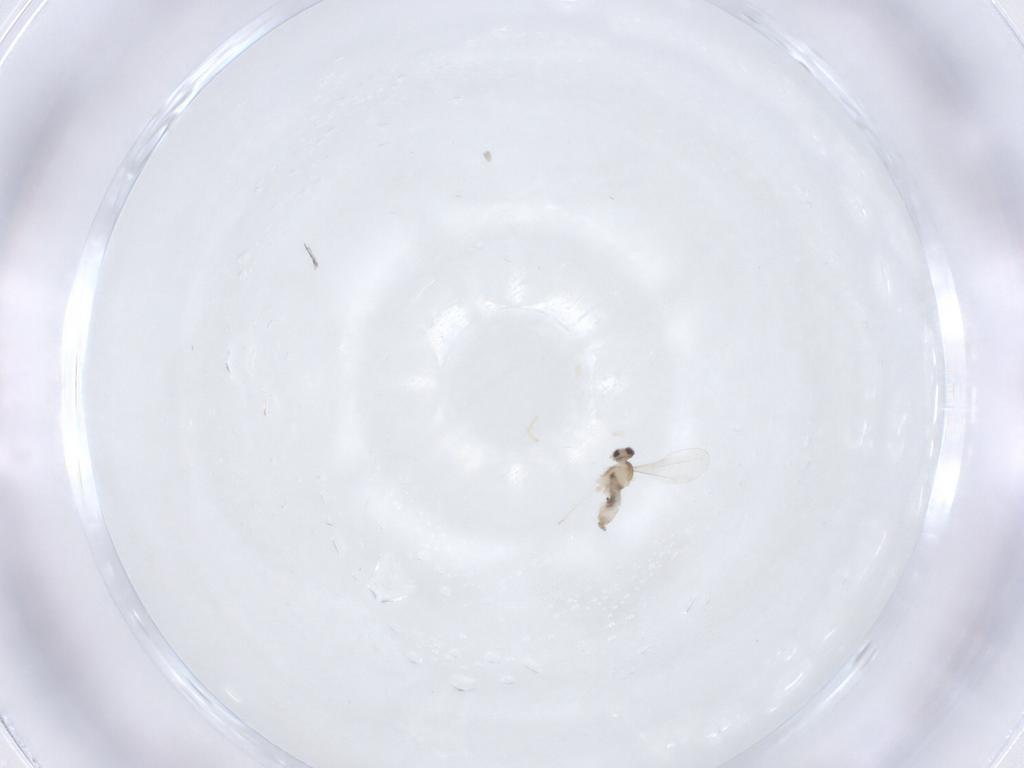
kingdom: Animalia
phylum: Arthropoda
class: Insecta
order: Diptera
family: Cecidomyiidae
